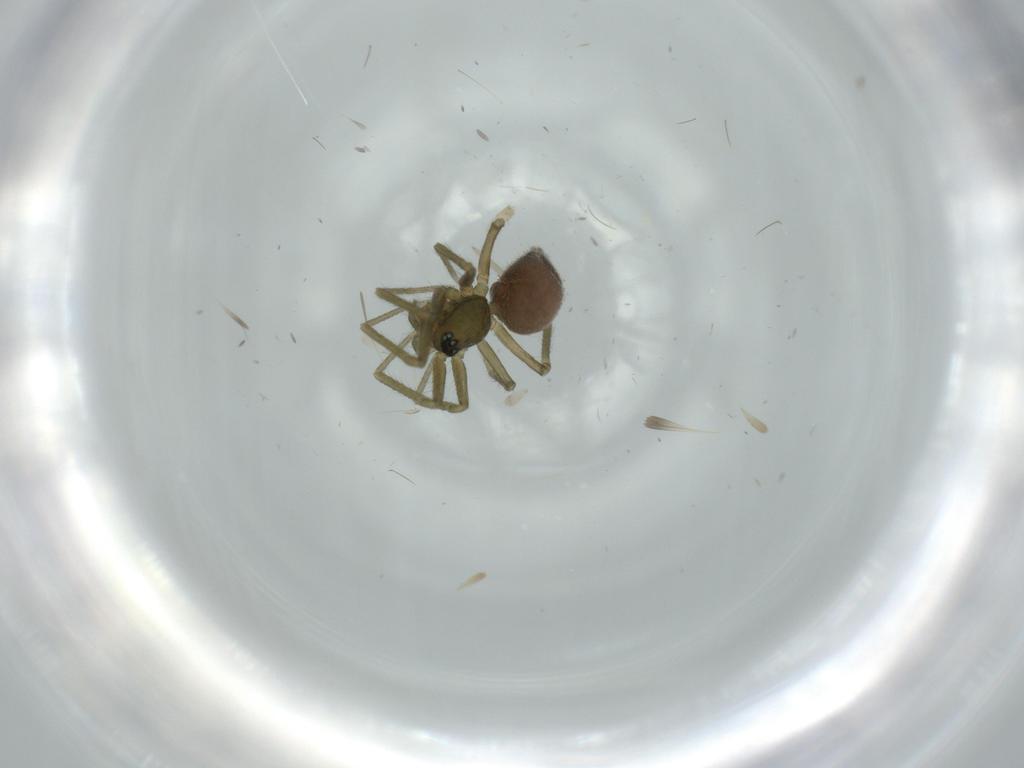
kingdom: Animalia
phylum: Arthropoda
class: Arachnida
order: Araneae
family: Linyphiidae
